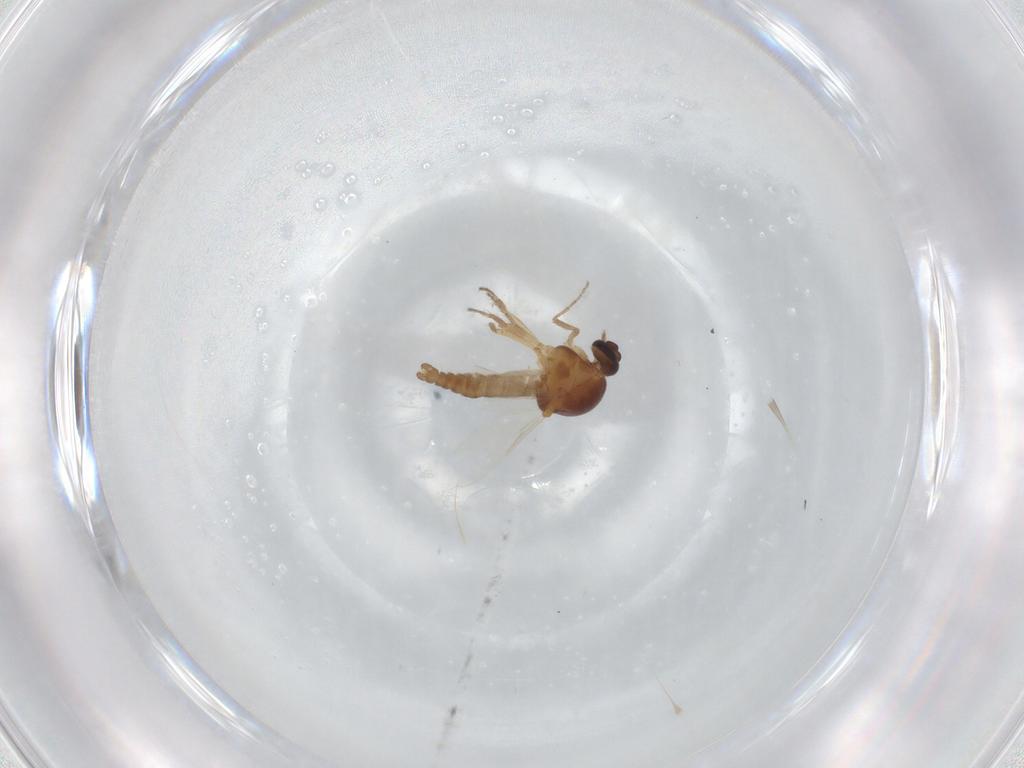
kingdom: Animalia
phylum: Arthropoda
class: Insecta
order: Diptera
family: Ceratopogonidae
